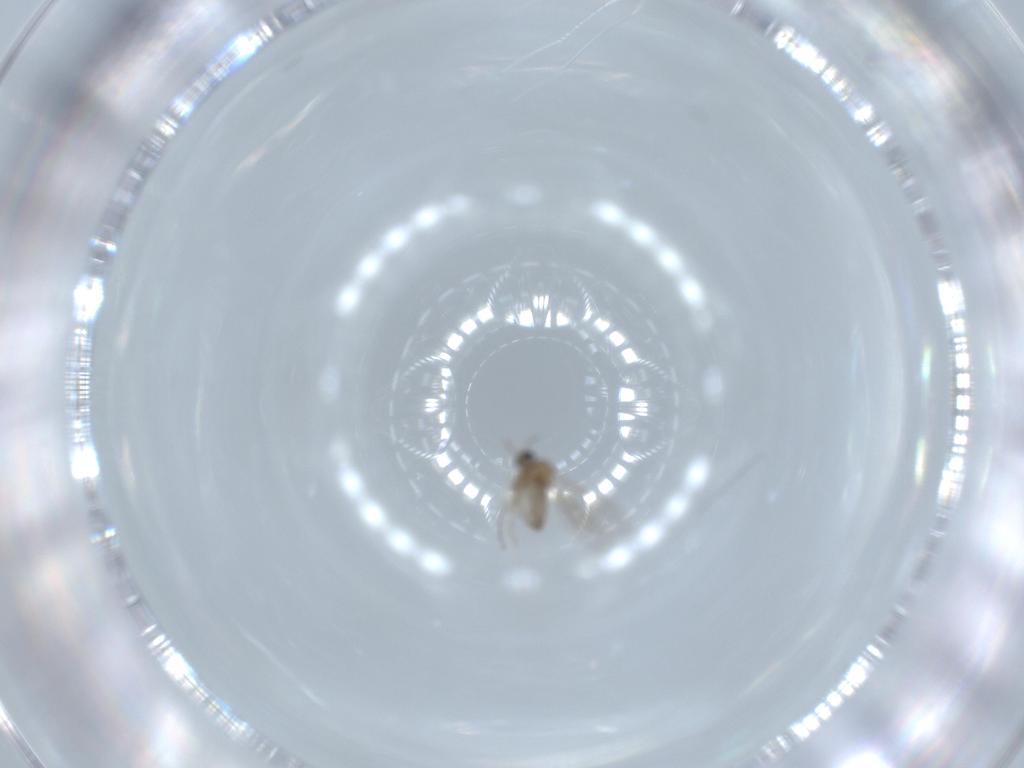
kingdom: Animalia
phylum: Arthropoda
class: Insecta
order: Diptera
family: Cecidomyiidae
